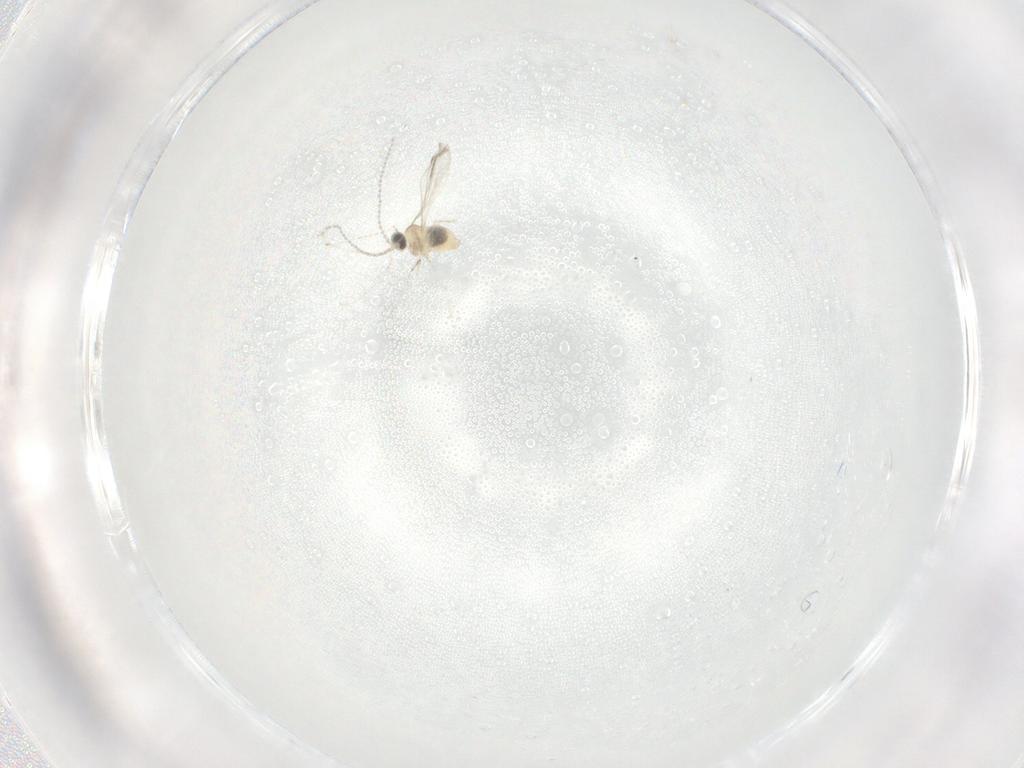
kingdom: Animalia
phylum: Arthropoda
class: Insecta
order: Diptera
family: Cecidomyiidae
